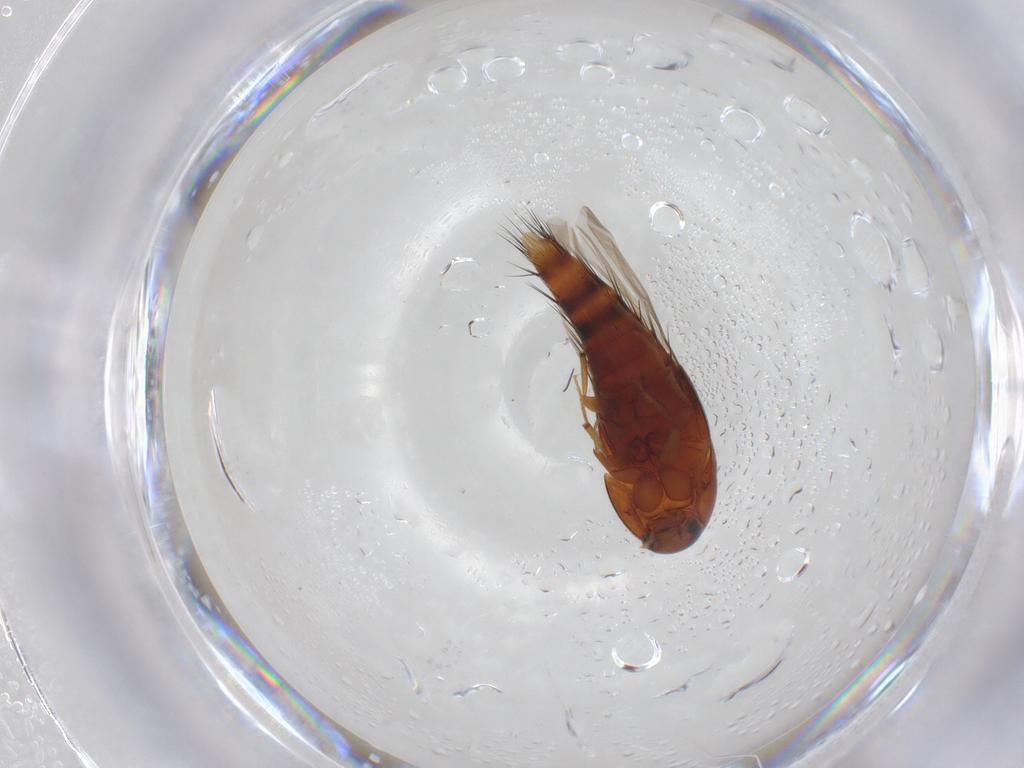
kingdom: Animalia
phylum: Arthropoda
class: Insecta
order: Coleoptera
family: Staphylinidae
